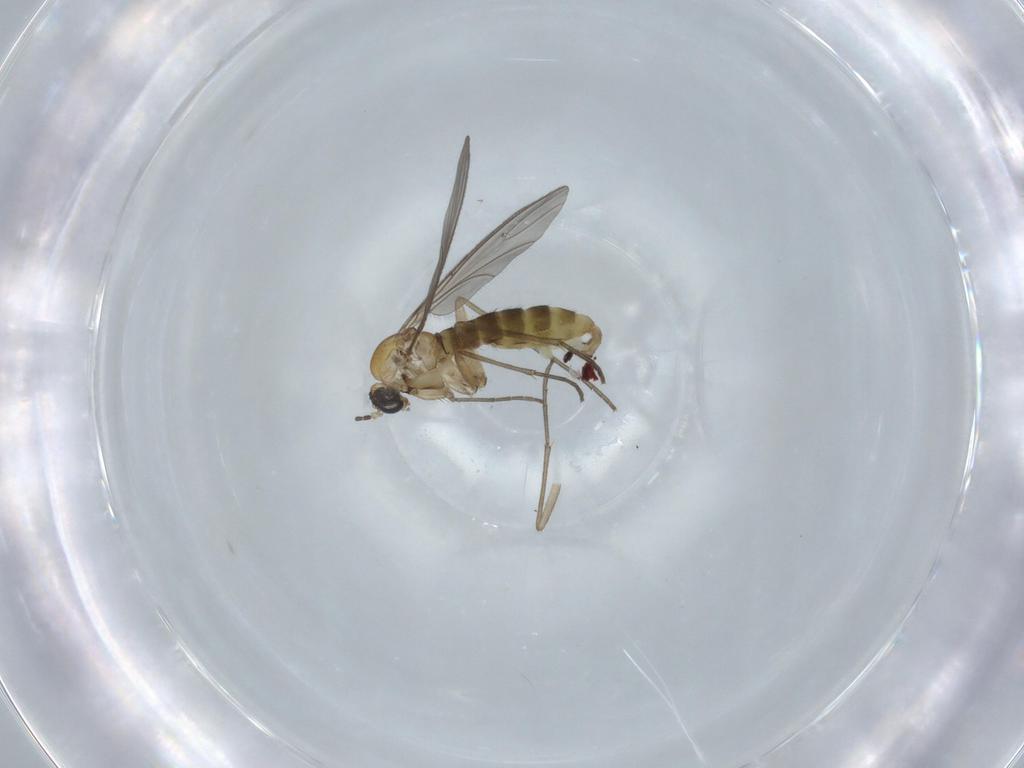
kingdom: Animalia
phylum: Arthropoda
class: Insecta
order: Diptera
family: Sciaridae
